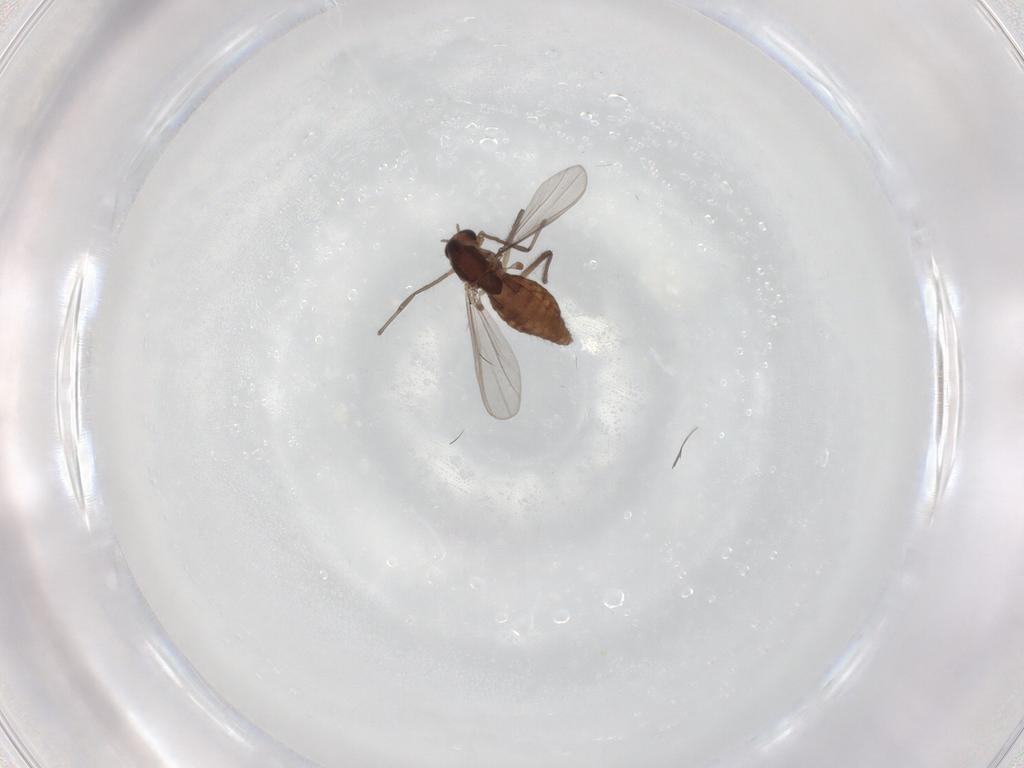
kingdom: Animalia
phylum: Arthropoda
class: Insecta
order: Diptera
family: Chironomidae
